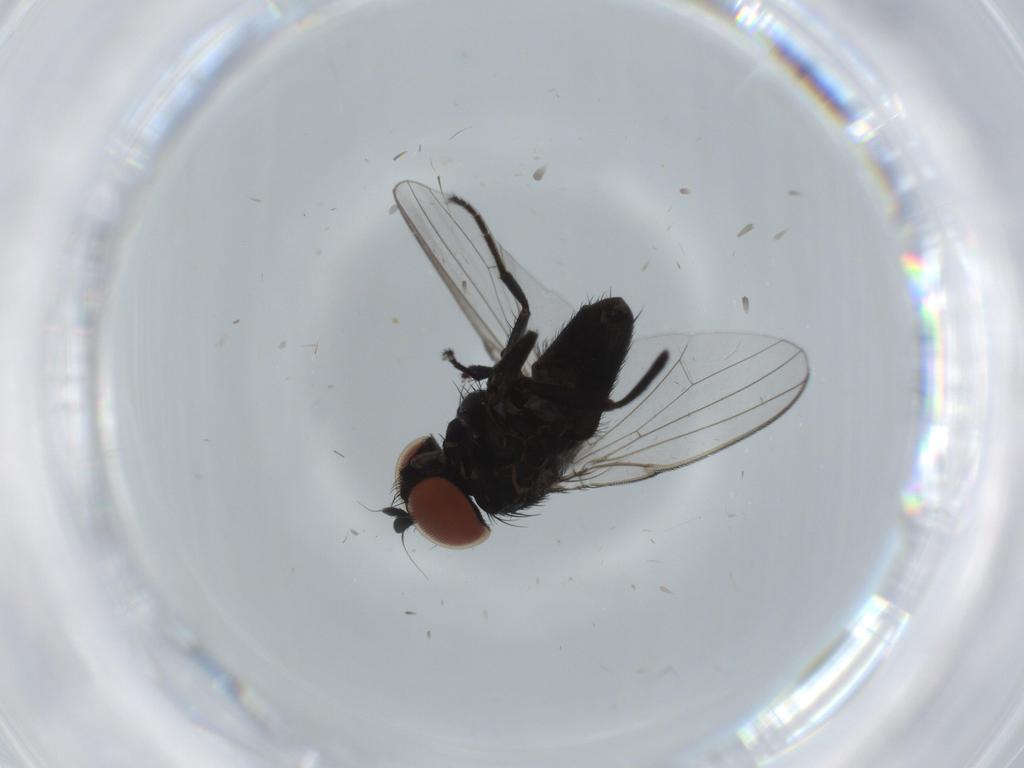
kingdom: Animalia
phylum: Arthropoda
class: Insecta
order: Diptera
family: Milichiidae
